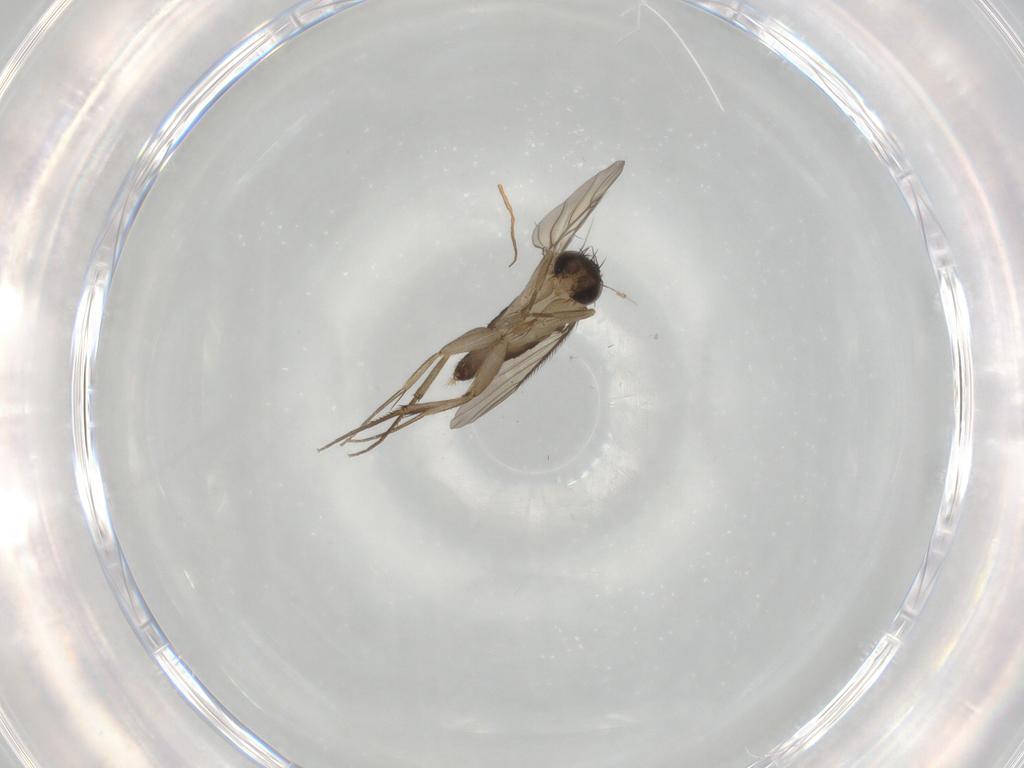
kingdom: Animalia
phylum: Arthropoda
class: Insecta
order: Diptera
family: Phoridae
